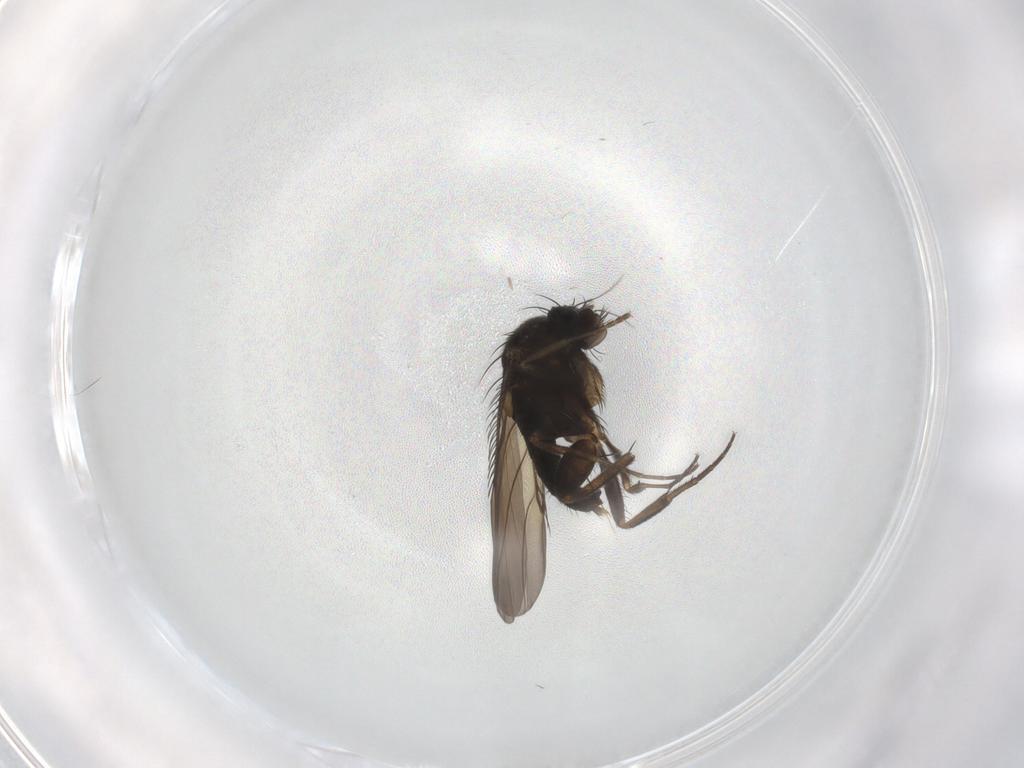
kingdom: Animalia
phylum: Arthropoda
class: Insecta
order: Diptera
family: Phoridae
